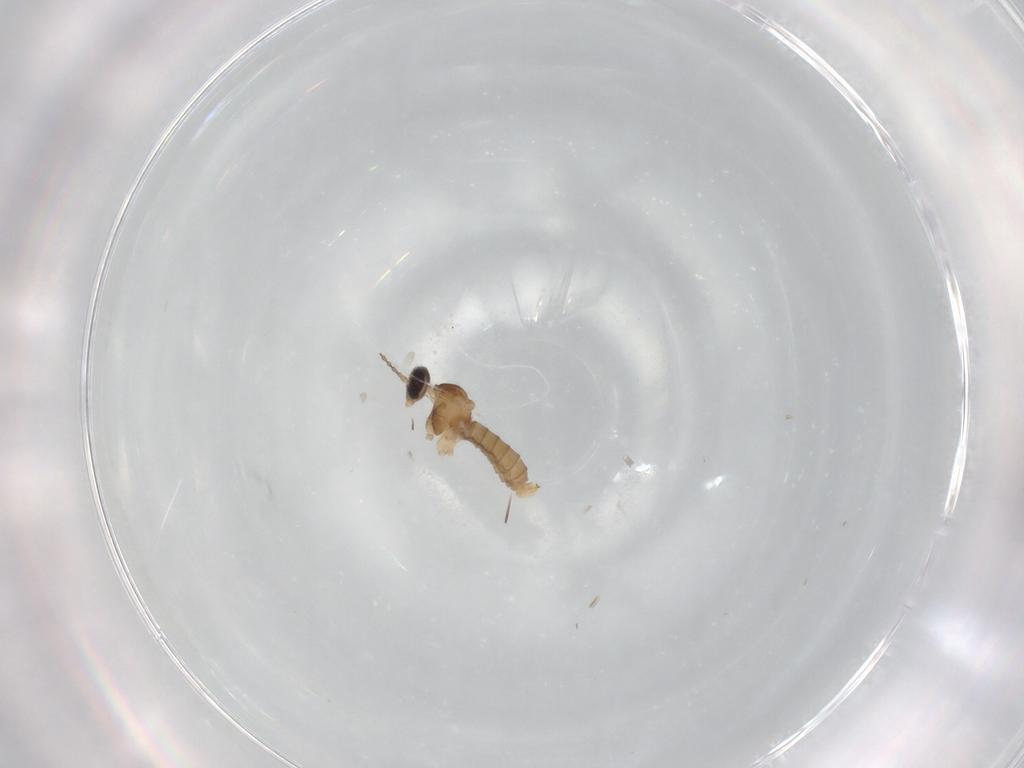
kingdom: Animalia
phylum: Arthropoda
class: Insecta
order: Diptera
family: Cecidomyiidae
